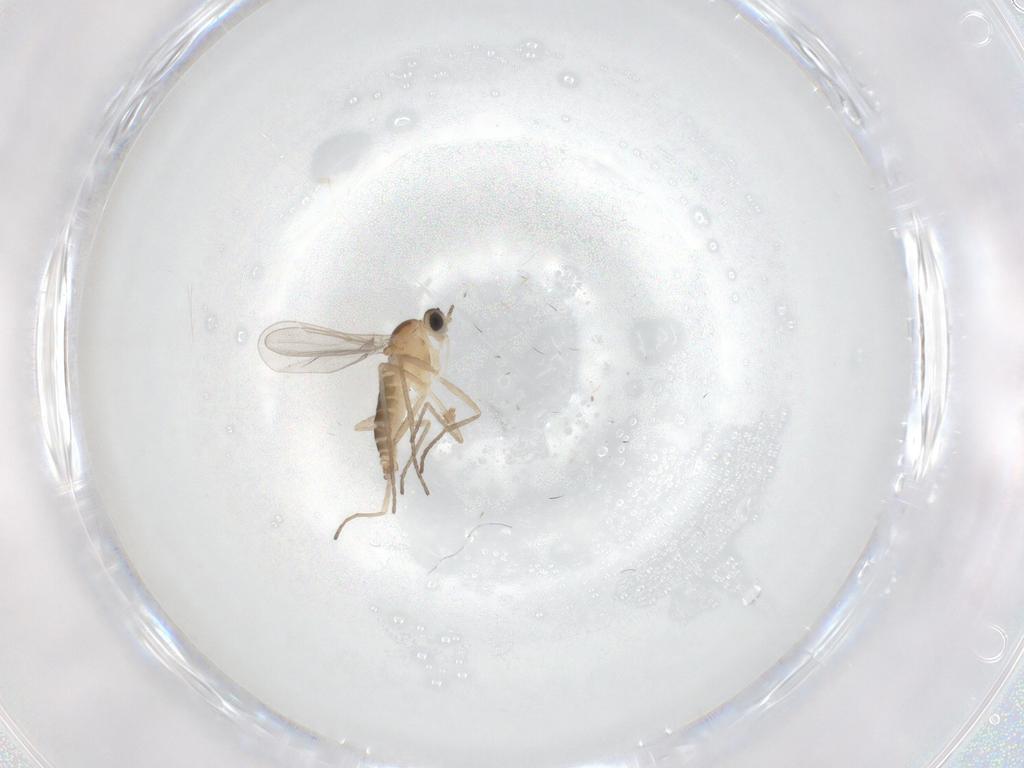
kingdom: Animalia
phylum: Arthropoda
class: Insecta
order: Diptera
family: Cecidomyiidae
